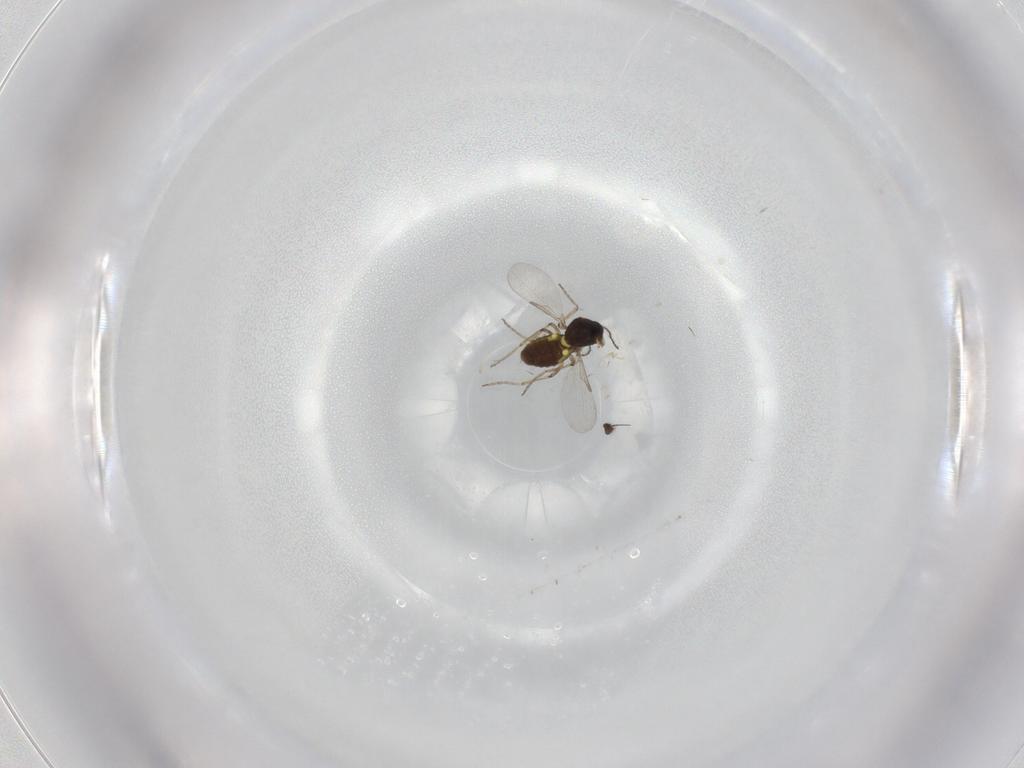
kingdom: Animalia
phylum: Arthropoda
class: Insecta
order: Diptera
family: Ceratopogonidae
